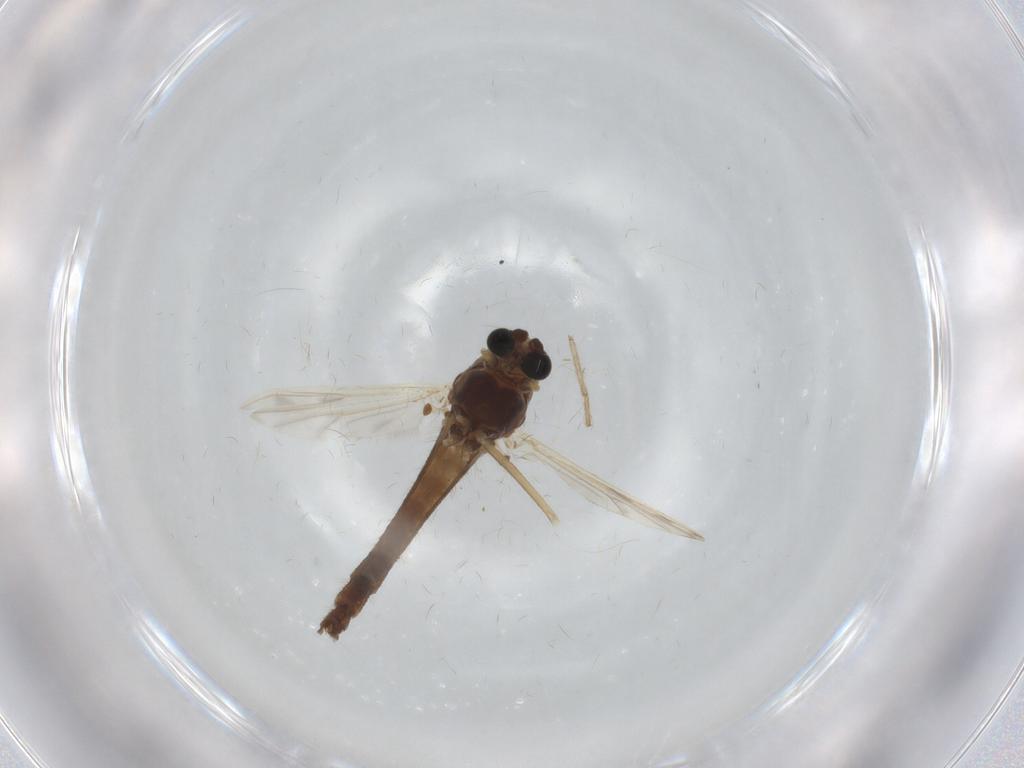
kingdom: Animalia
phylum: Arthropoda
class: Insecta
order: Diptera
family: Chironomidae
